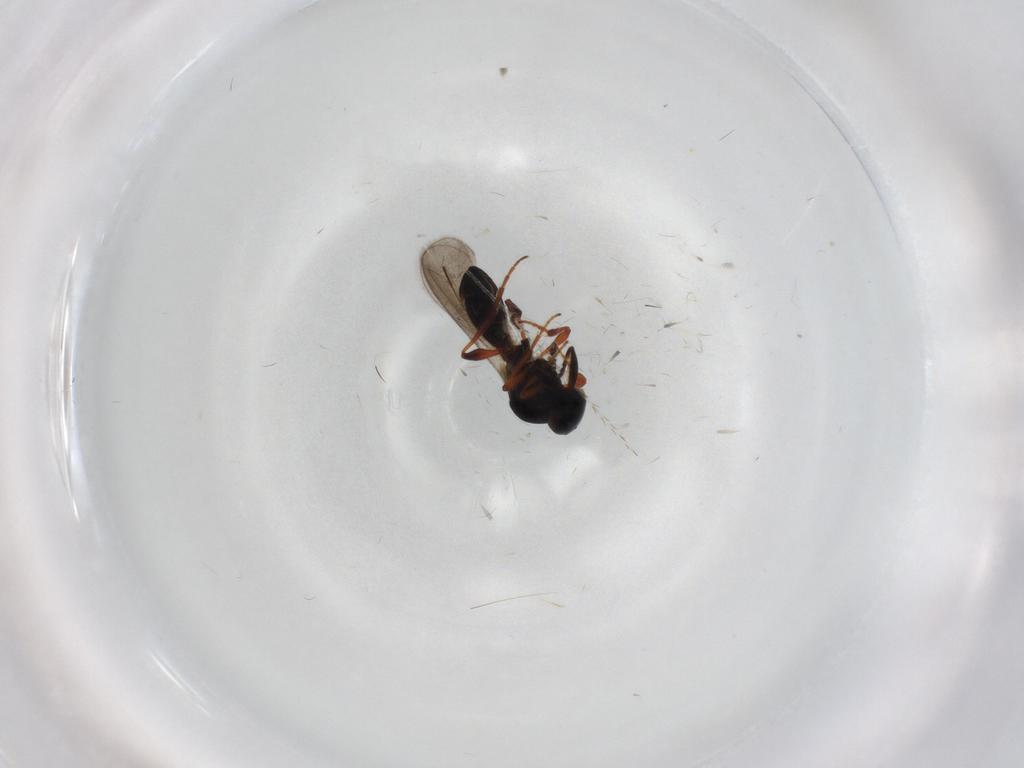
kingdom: Animalia
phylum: Arthropoda
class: Insecta
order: Hymenoptera
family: Platygastridae
